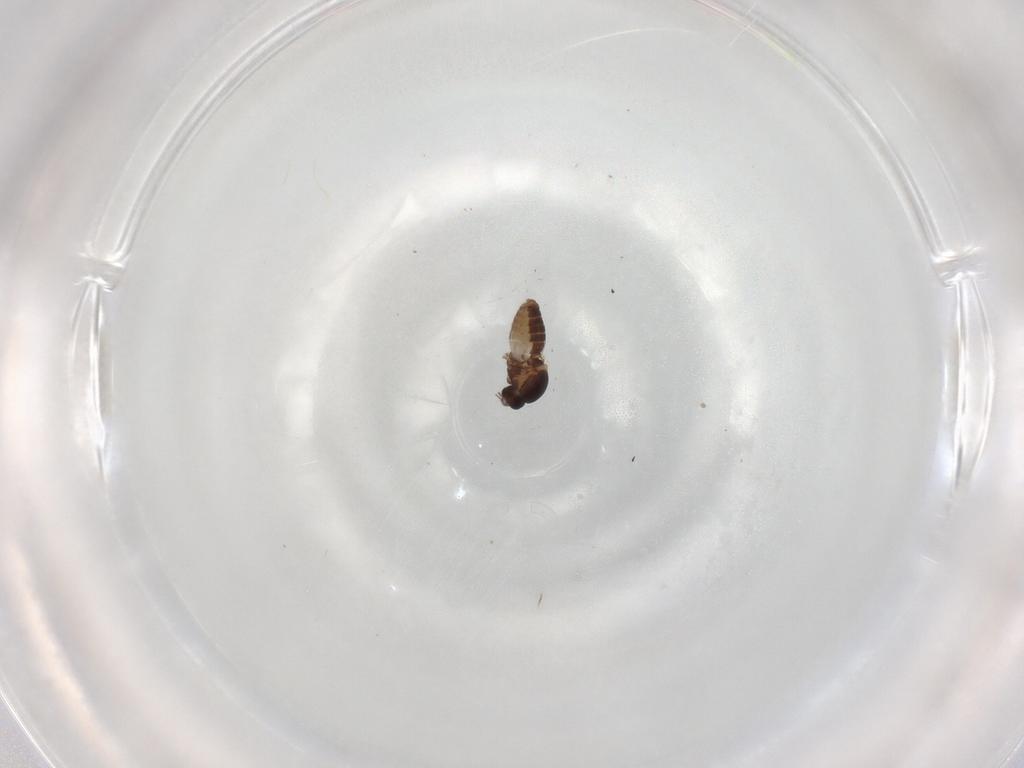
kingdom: Animalia
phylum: Arthropoda
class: Insecta
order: Diptera
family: Ceratopogonidae
